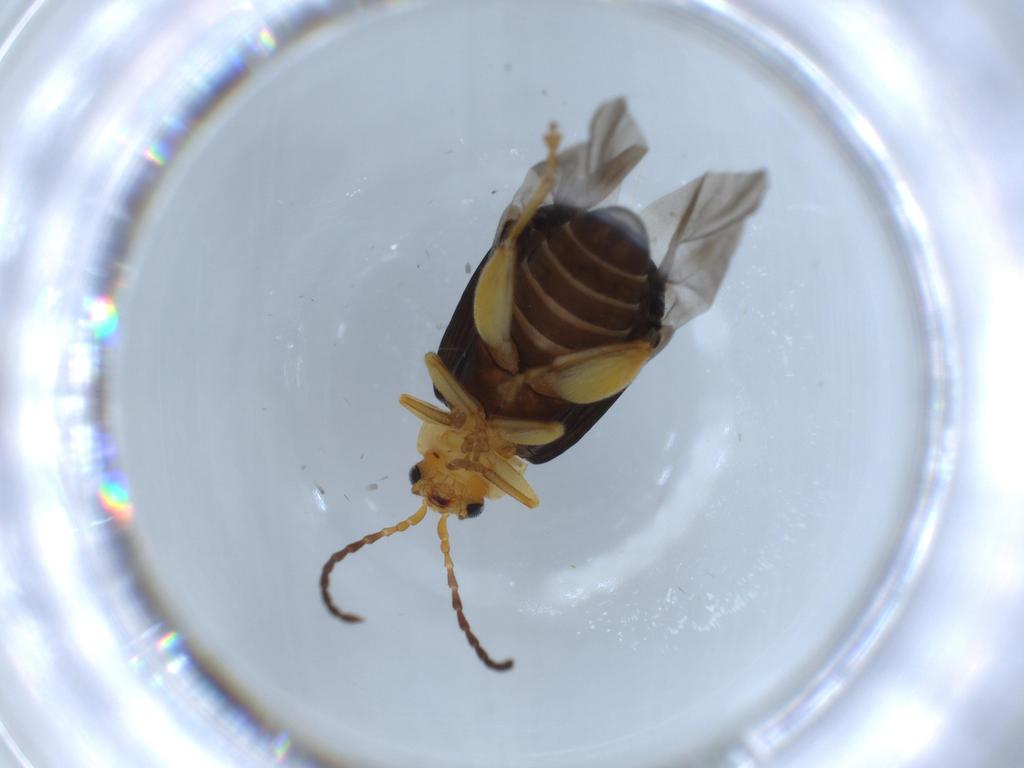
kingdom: Animalia
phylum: Arthropoda
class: Insecta
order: Coleoptera
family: Chrysomelidae
